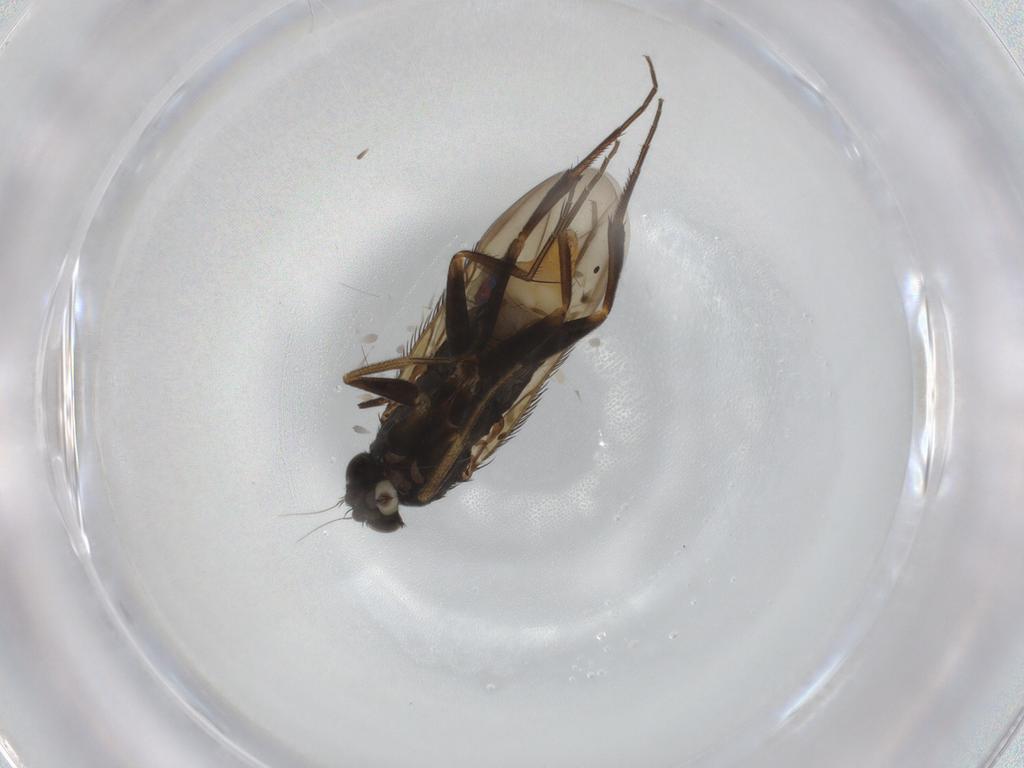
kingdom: Animalia
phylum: Arthropoda
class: Insecta
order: Diptera
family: Phoridae
